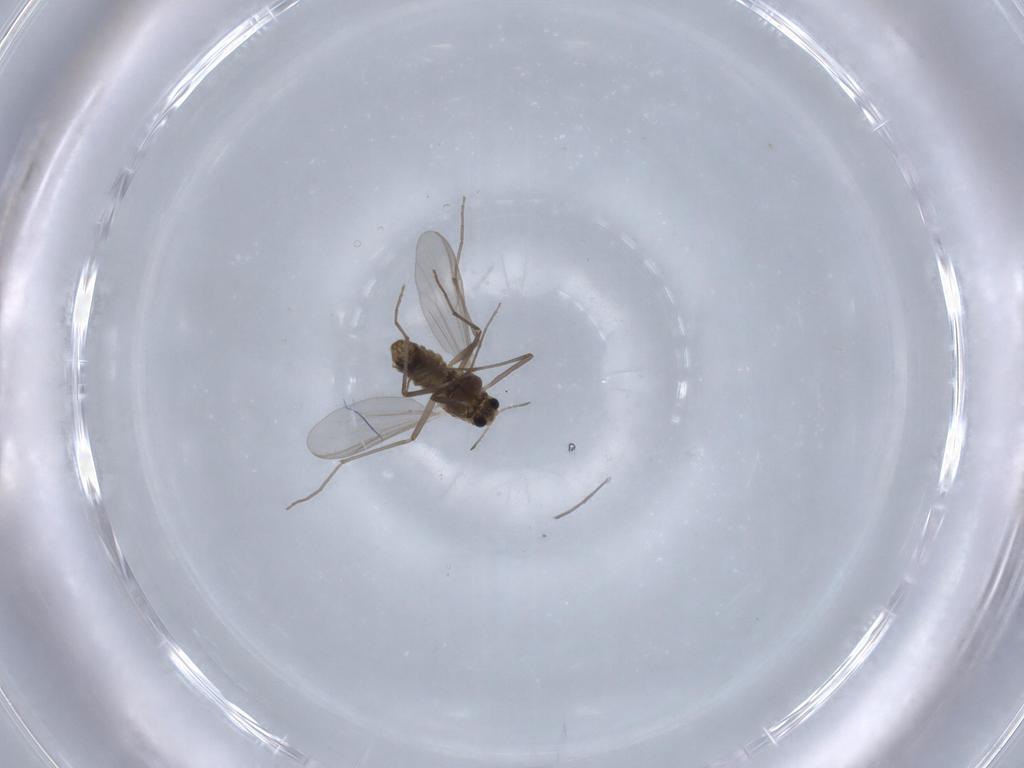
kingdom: Animalia
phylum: Arthropoda
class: Insecta
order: Diptera
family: Chironomidae
